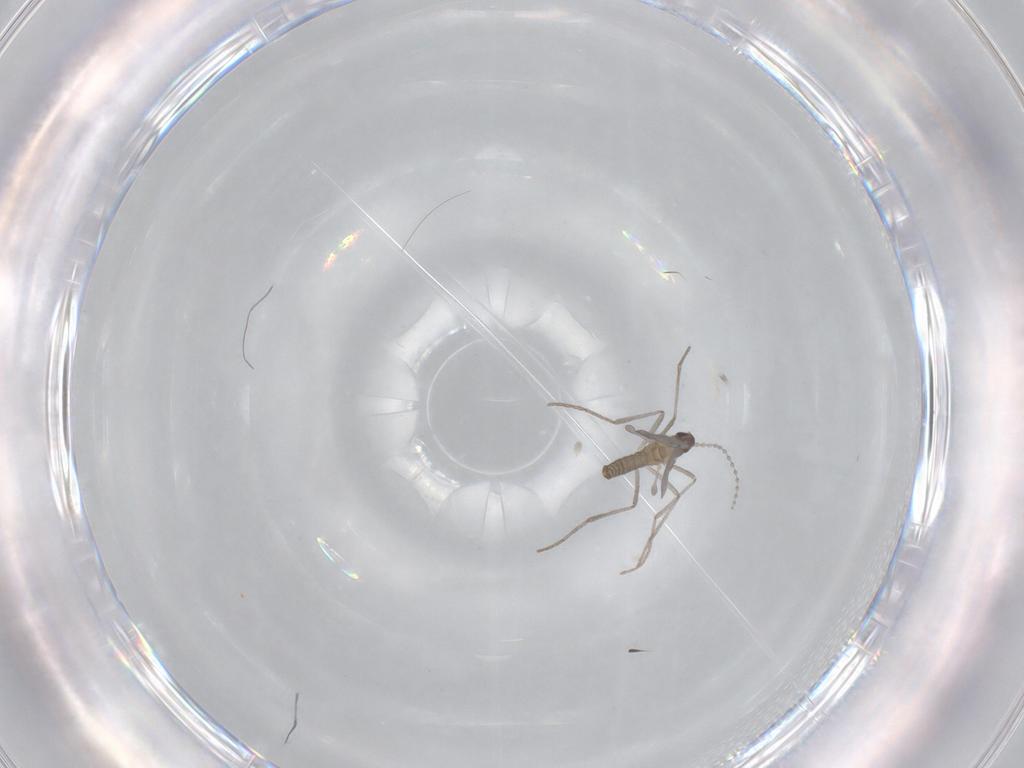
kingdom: Animalia
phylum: Arthropoda
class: Insecta
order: Diptera
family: Cecidomyiidae
